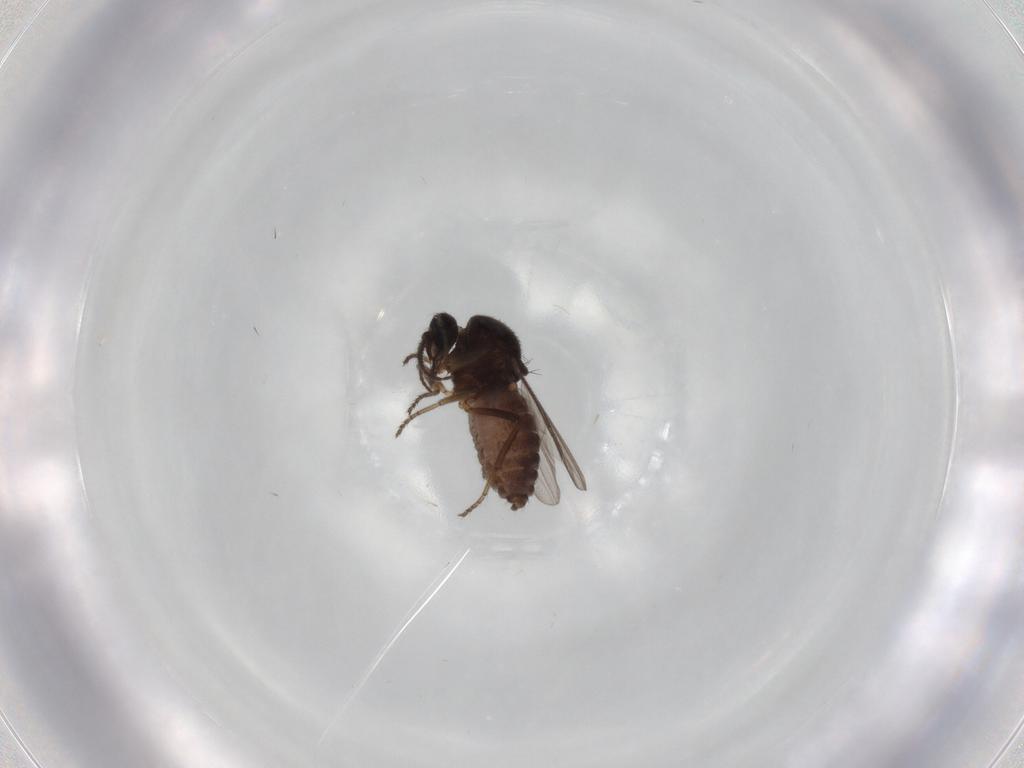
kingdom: Animalia
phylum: Arthropoda
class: Insecta
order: Diptera
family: Ceratopogonidae
